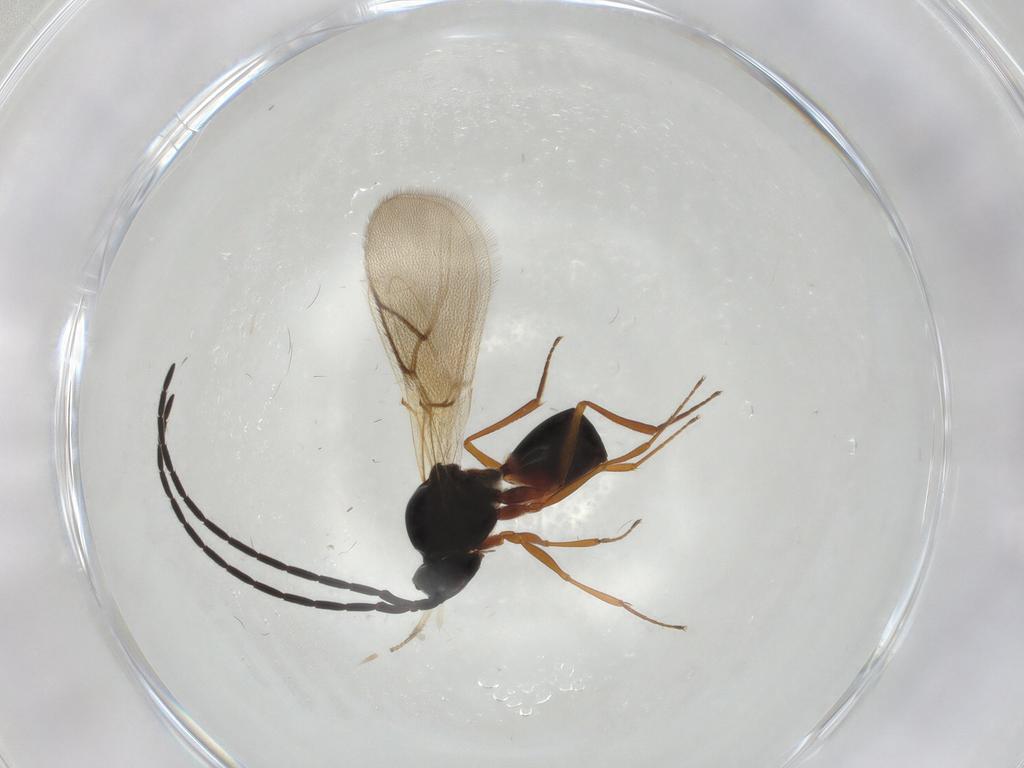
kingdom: Animalia
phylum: Arthropoda
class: Insecta
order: Hymenoptera
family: Figitidae
